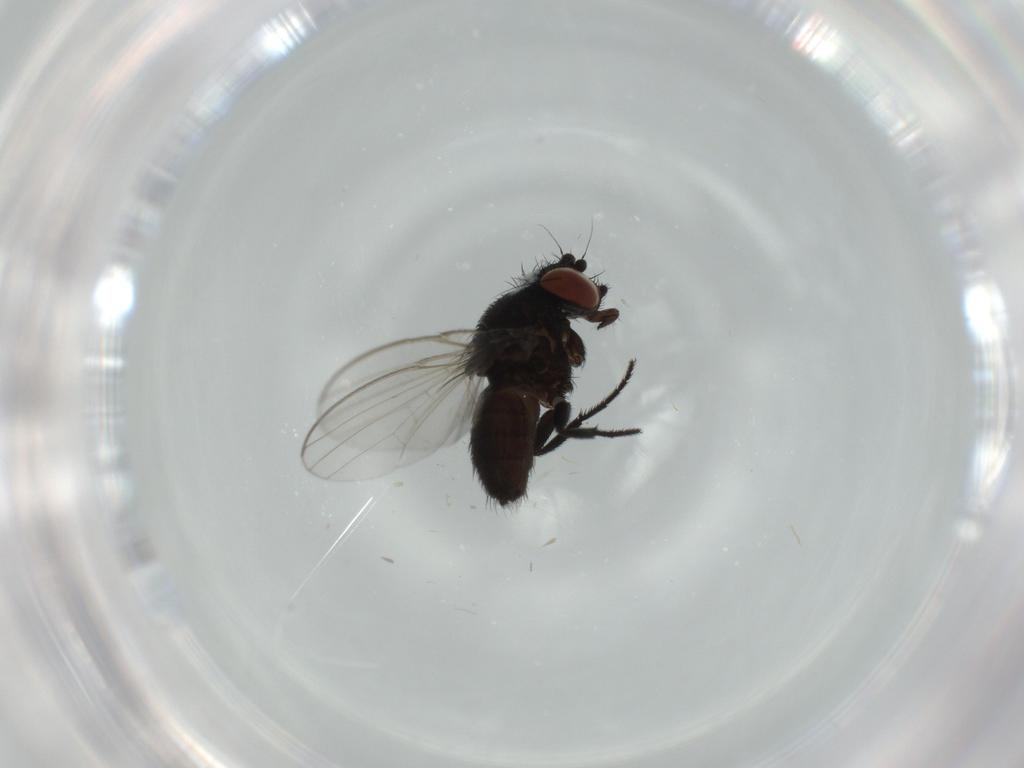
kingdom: Animalia
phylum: Arthropoda
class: Insecta
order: Diptera
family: Milichiidae
